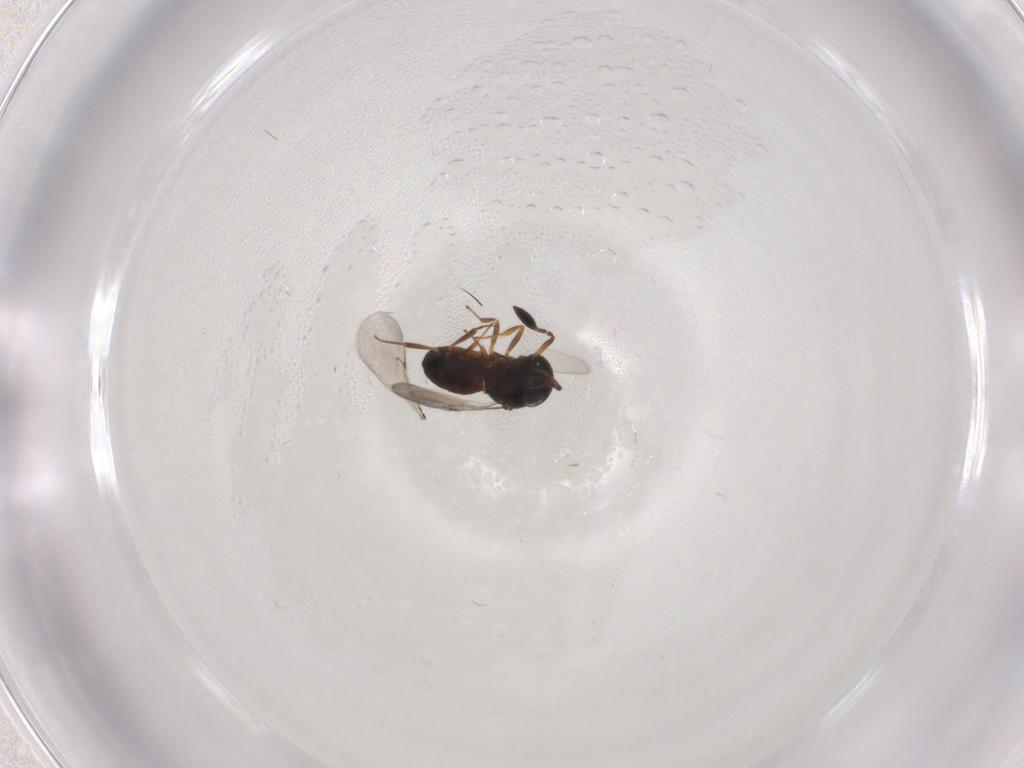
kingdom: Animalia
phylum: Arthropoda
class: Insecta
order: Hymenoptera
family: Scelionidae
